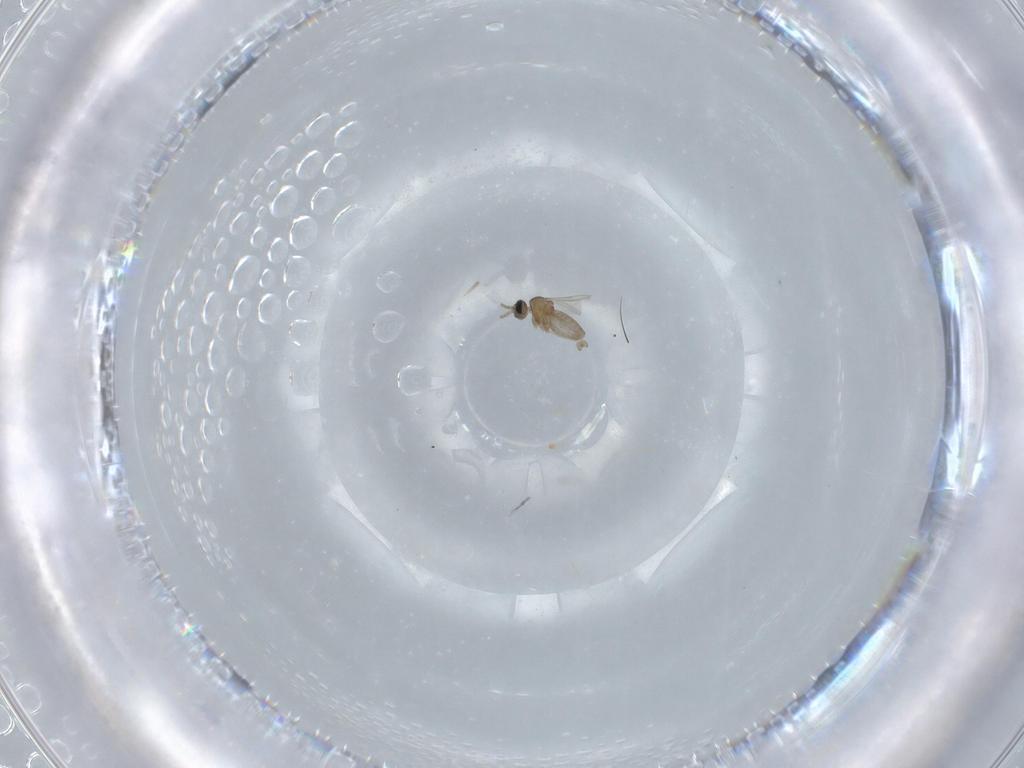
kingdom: Animalia
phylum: Arthropoda
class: Insecta
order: Diptera
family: Cecidomyiidae
